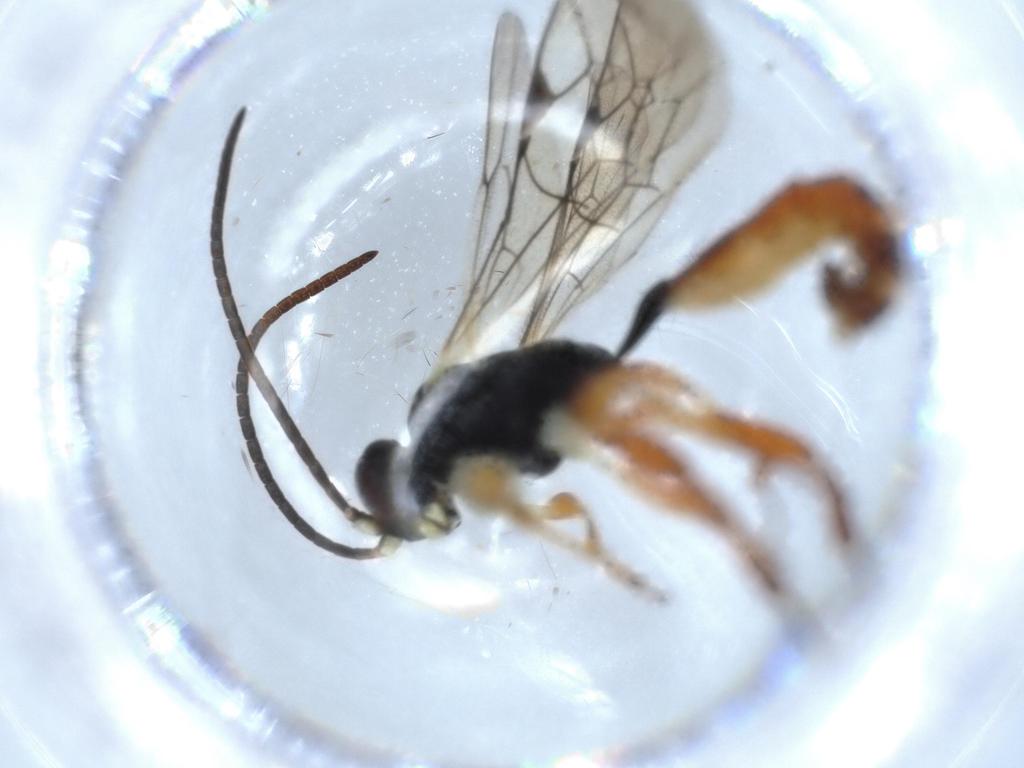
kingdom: Animalia
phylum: Arthropoda
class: Insecta
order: Hymenoptera
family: Ichneumonidae
